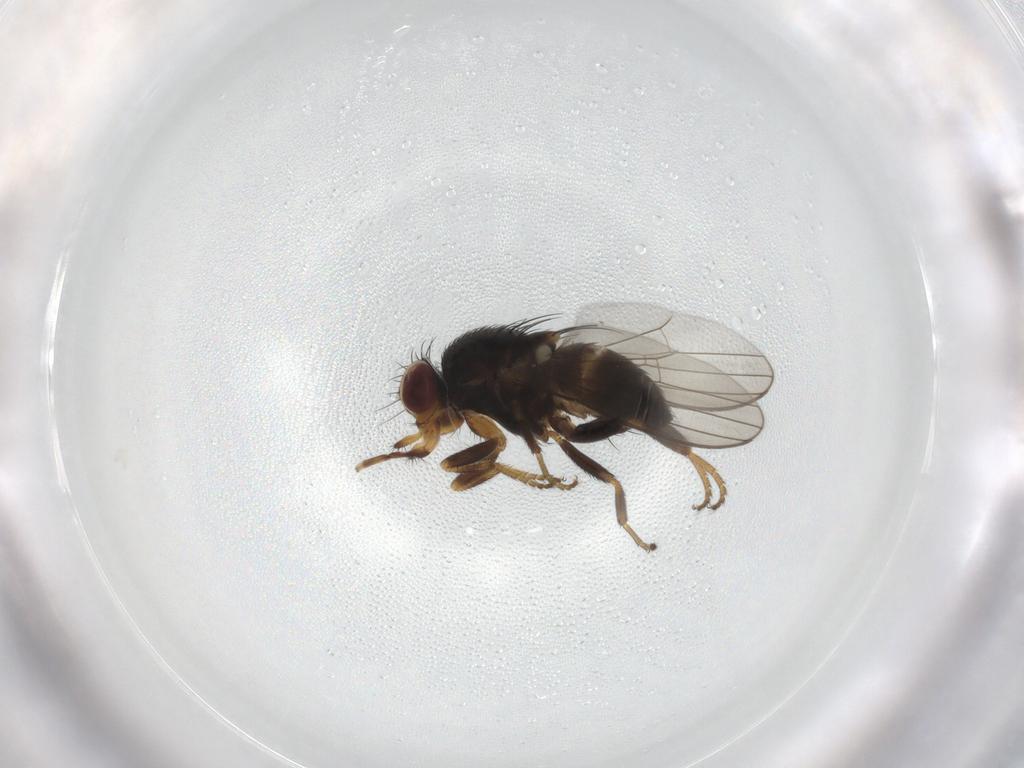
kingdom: Animalia
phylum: Arthropoda
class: Insecta
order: Diptera
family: Milichiidae
